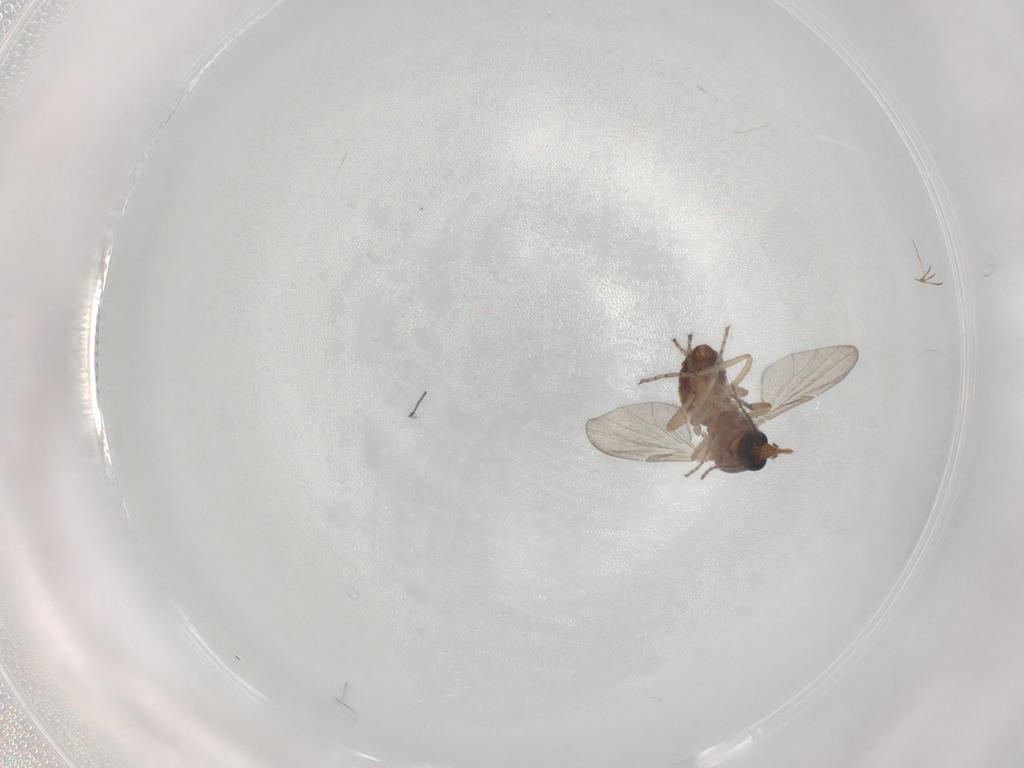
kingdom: Animalia
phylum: Arthropoda
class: Insecta
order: Diptera
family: Ceratopogonidae
